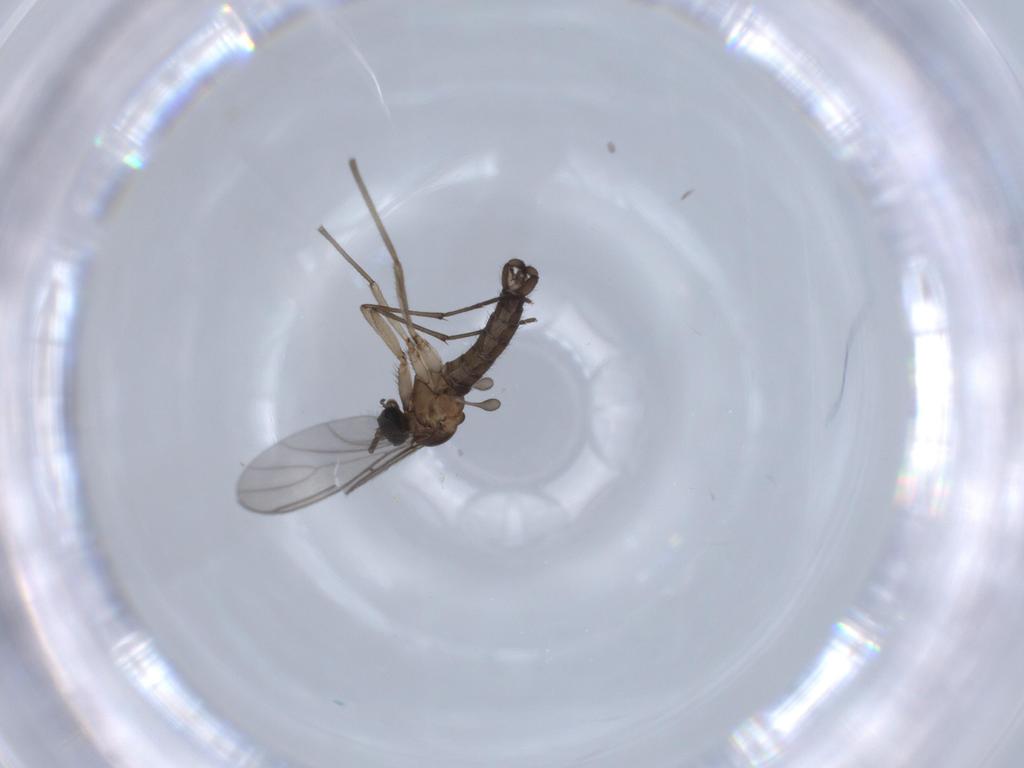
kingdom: Animalia
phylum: Arthropoda
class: Insecta
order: Diptera
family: Sciaridae
